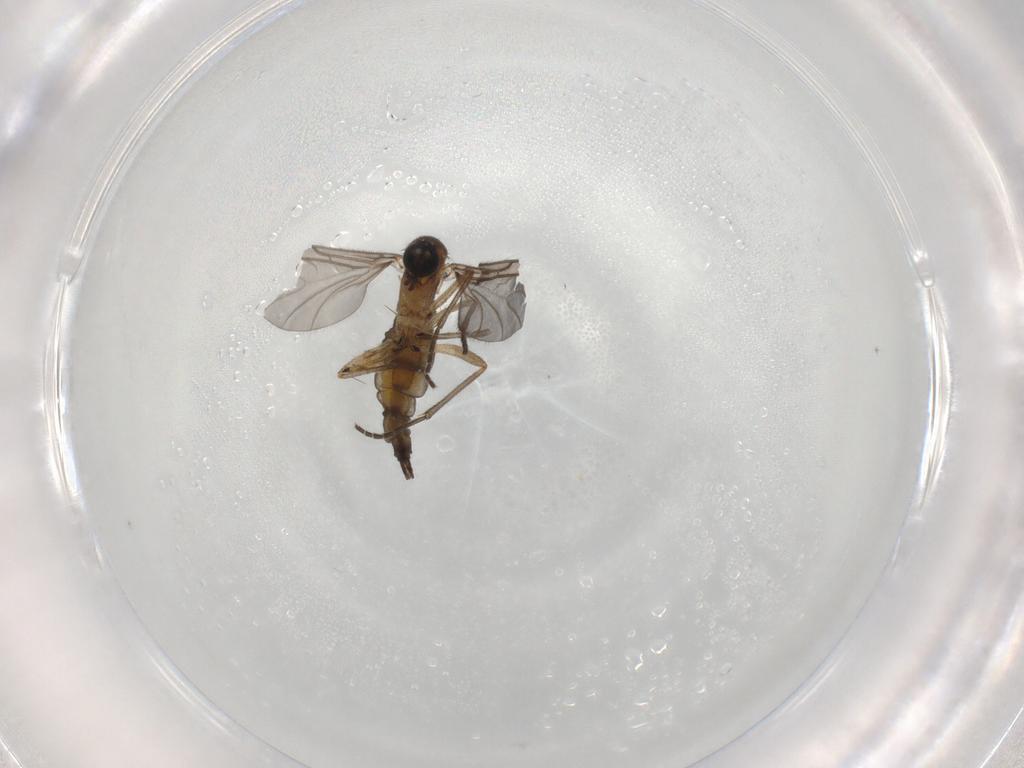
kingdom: Animalia
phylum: Arthropoda
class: Insecta
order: Diptera
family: Sciaridae
